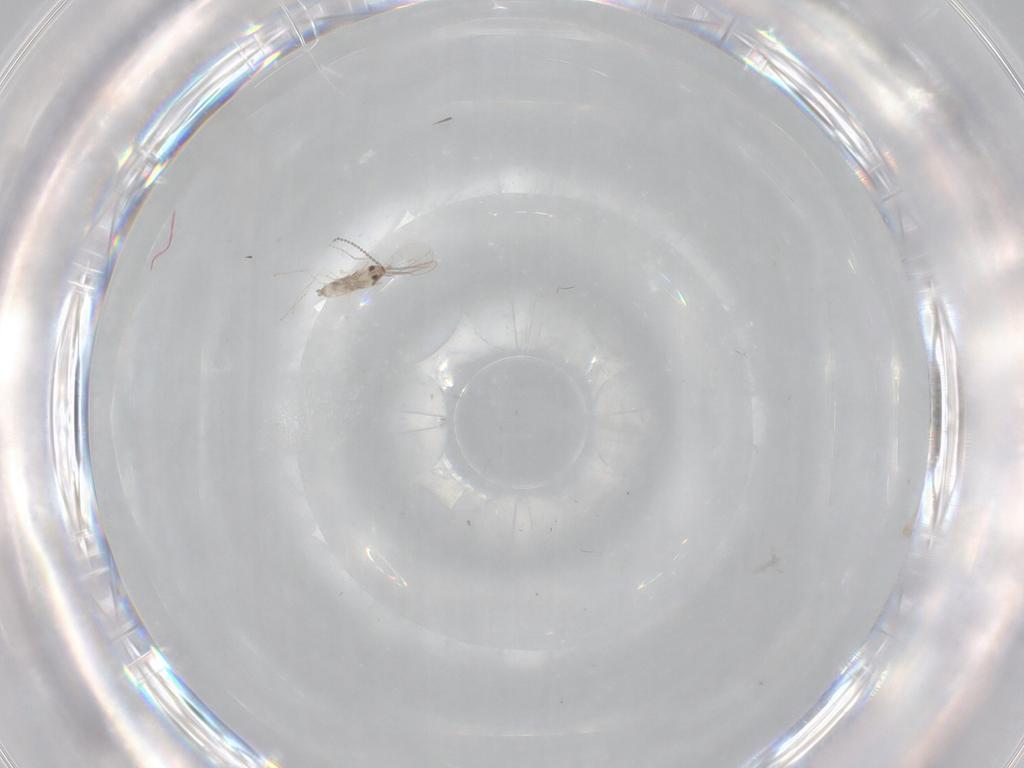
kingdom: Animalia
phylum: Arthropoda
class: Insecta
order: Diptera
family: Cecidomyiidae
